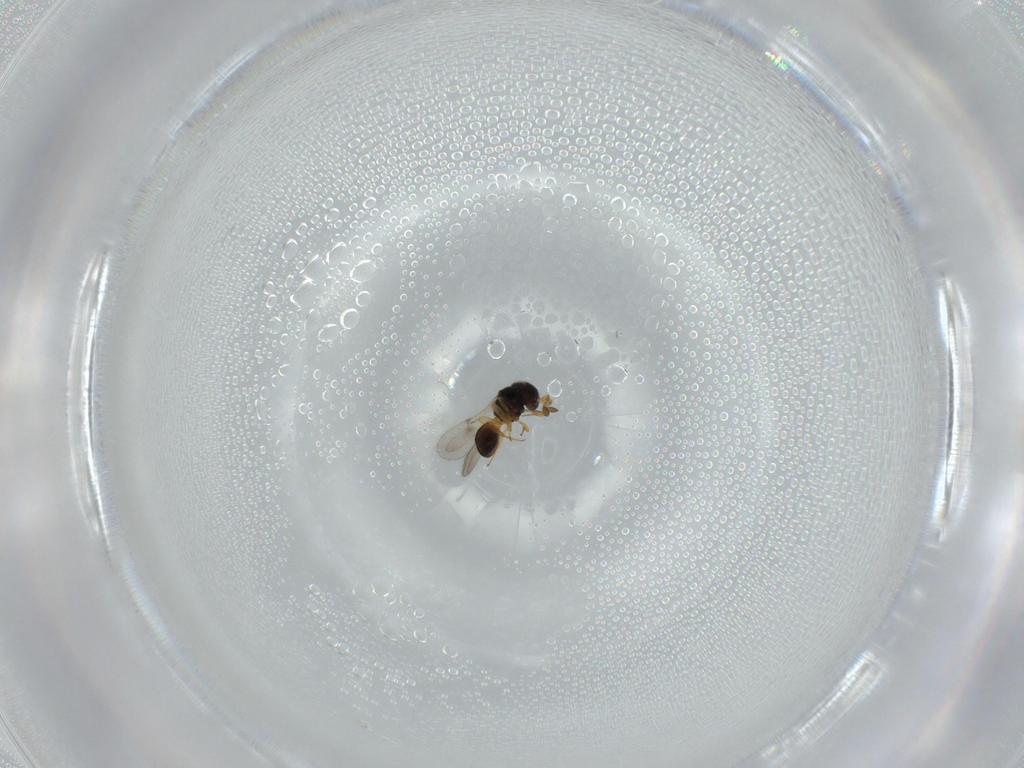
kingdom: Animalia
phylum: Arthropoda
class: Insecta
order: Hymenoptera
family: Scelionidae
